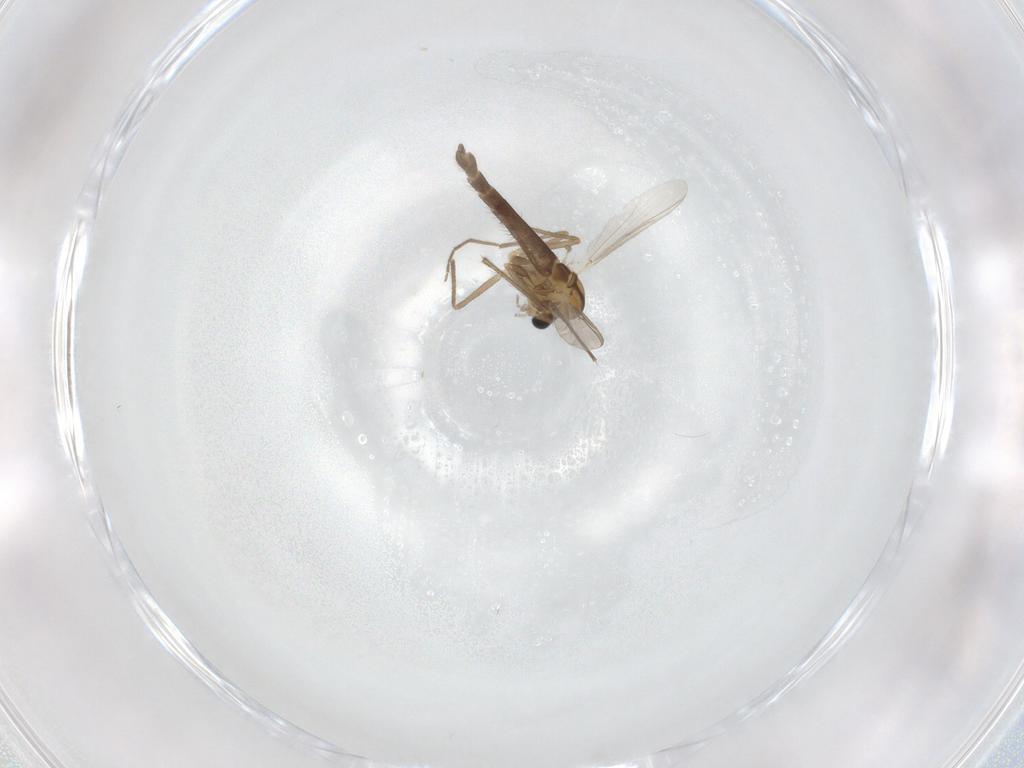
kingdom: Animalia
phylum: Arthropoda
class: Insecta
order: Diptera
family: Chironomidae
